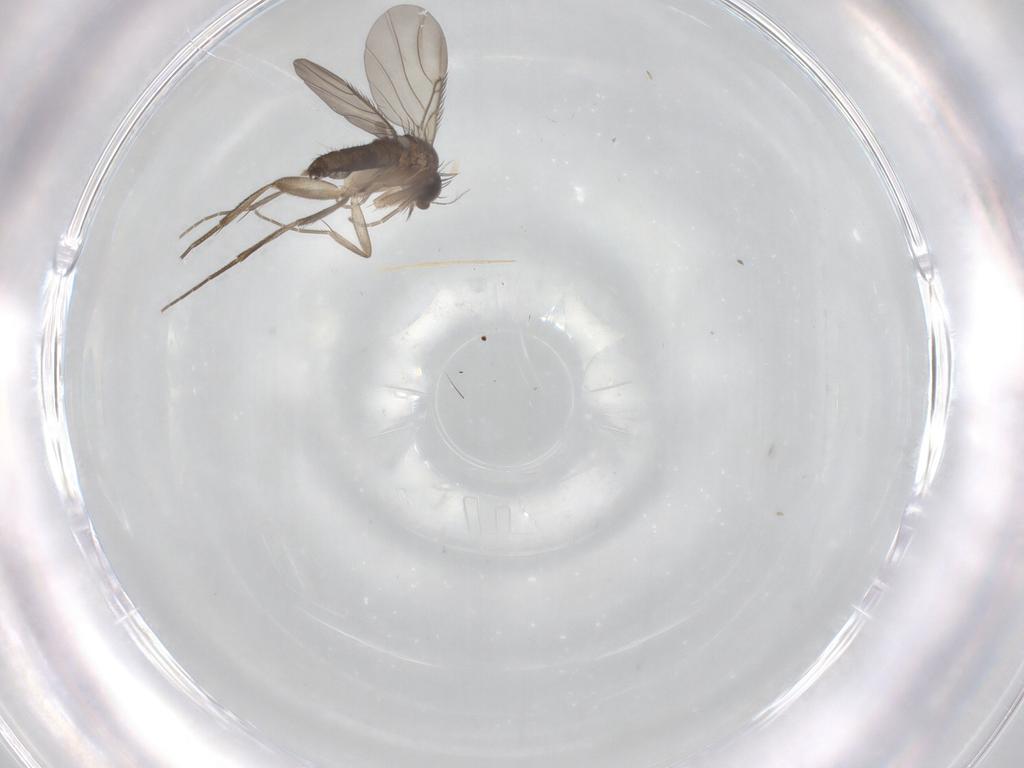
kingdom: Animalia
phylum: Arthropoda
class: Insecta
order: Diptera
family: Phoridae
